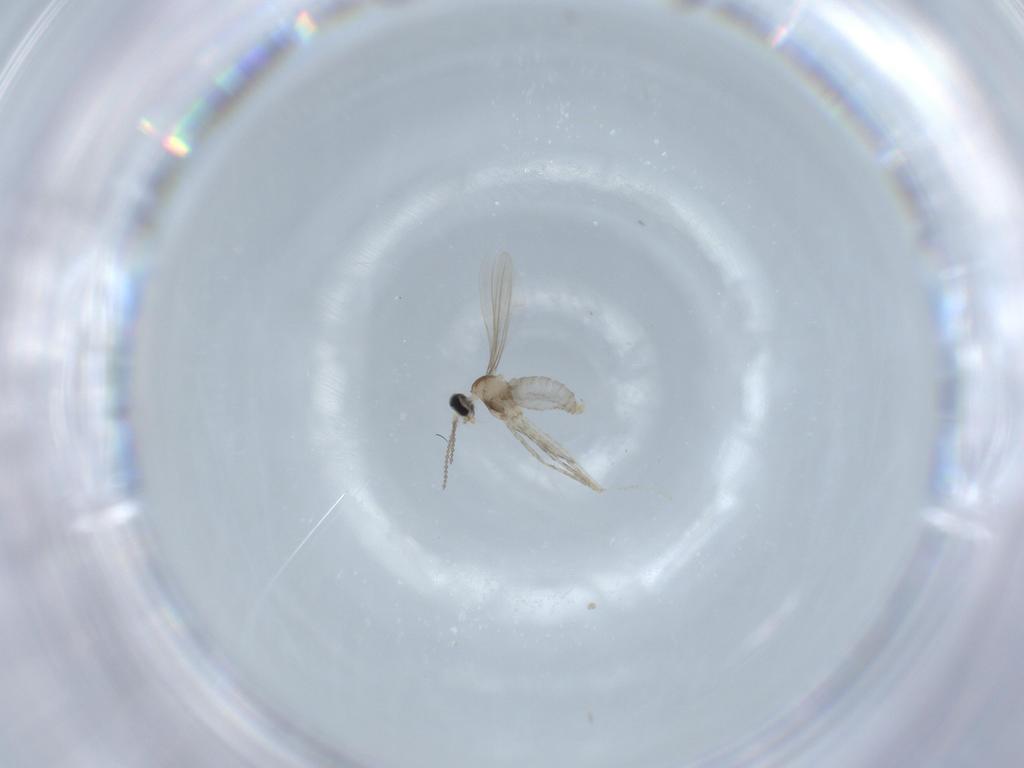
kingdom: Animalia
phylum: Arthropoda
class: Insecta
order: Diptera
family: Cecidomyiidae
